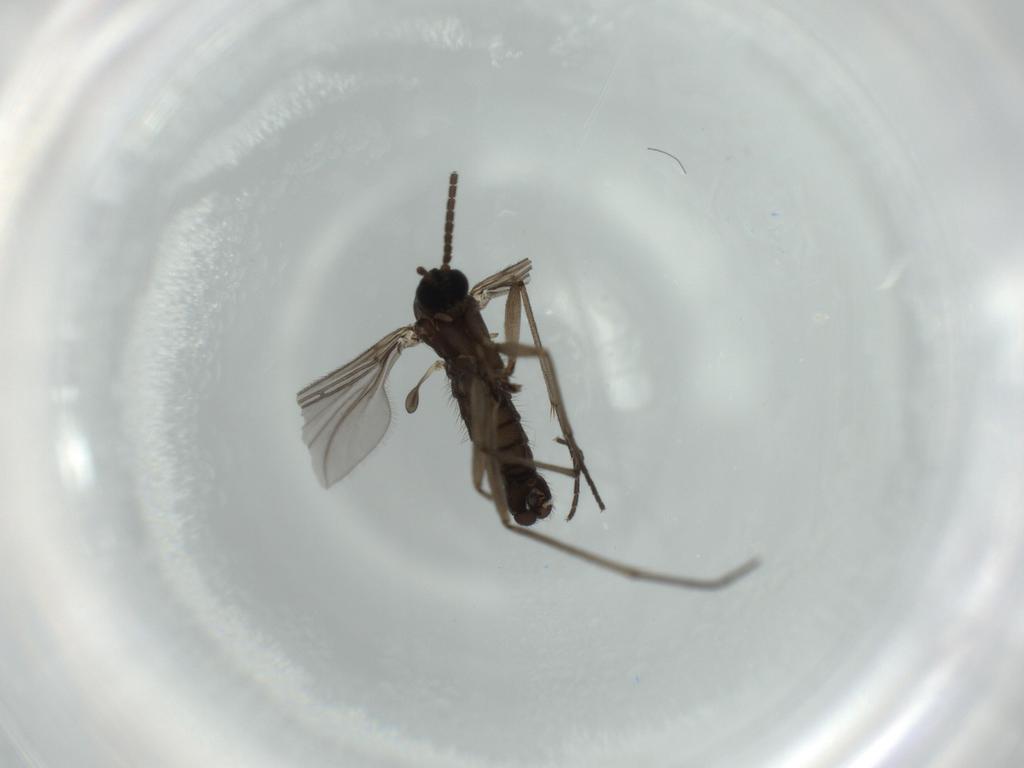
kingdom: Animalia
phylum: Arthropoda
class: Insecta
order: Diptera
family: Sciaridae
